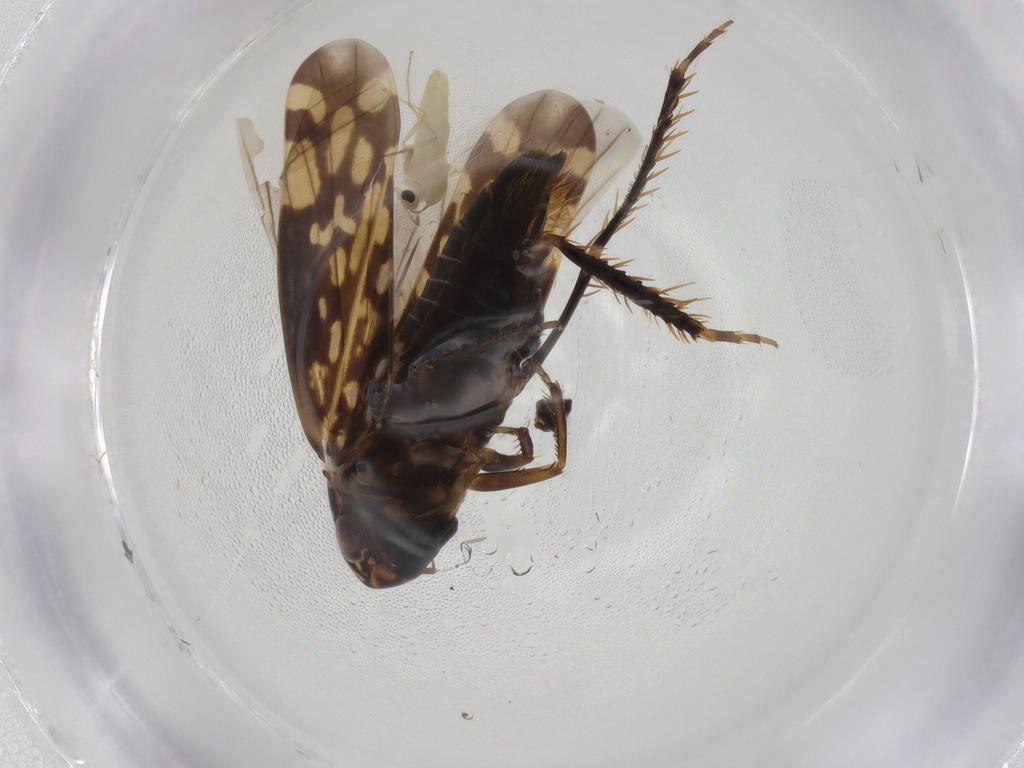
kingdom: Animalia
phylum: Arthropoda
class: Insecta
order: Hemiptera
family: Cicadellidae
